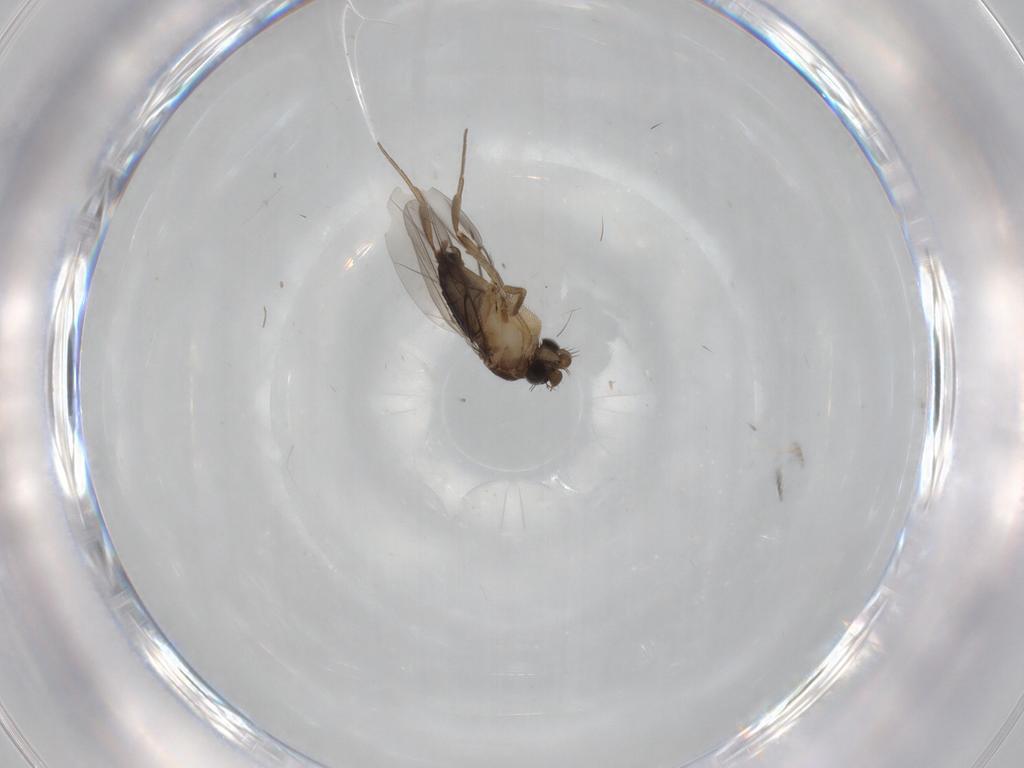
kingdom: Animalia
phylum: Arthropoda
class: Insecta
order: Diptera
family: Phoridae
